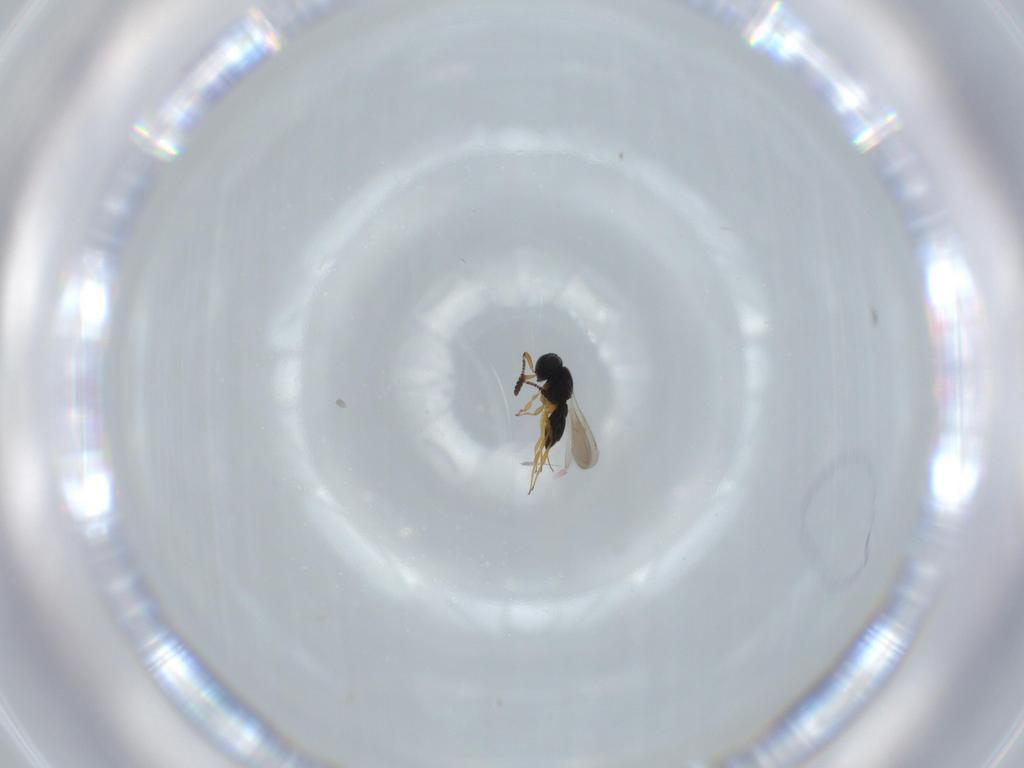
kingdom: Animalia
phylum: Arthropoda
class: Insecta
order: Hymenoptera
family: Scelionidae
